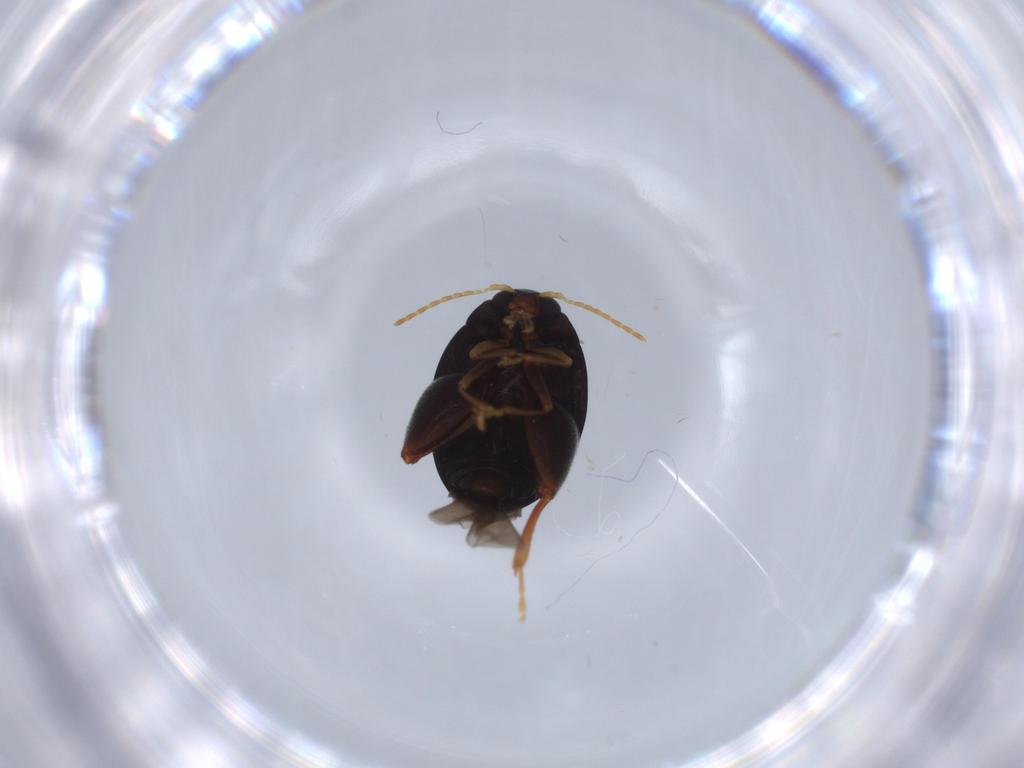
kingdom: Animalia
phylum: Arthropoda
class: Insecta
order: Coleoptera
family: Chrysomelidae
